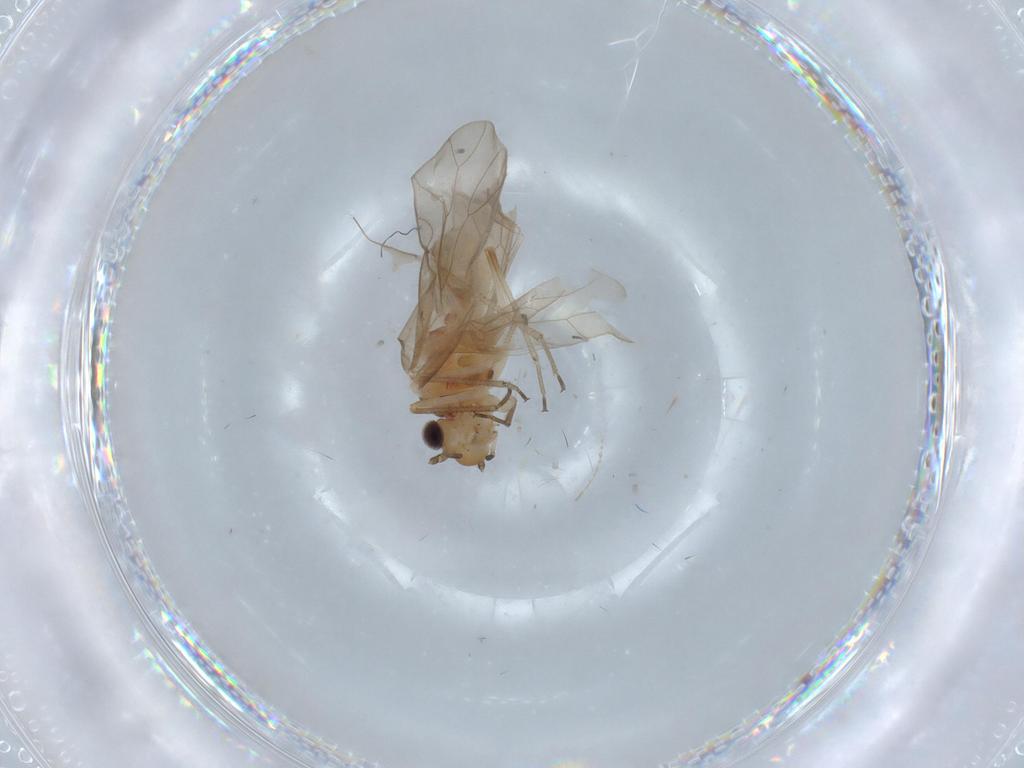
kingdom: Animalia
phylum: Arthropoda
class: Insecta
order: Psocodea
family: Caeciliusidae
